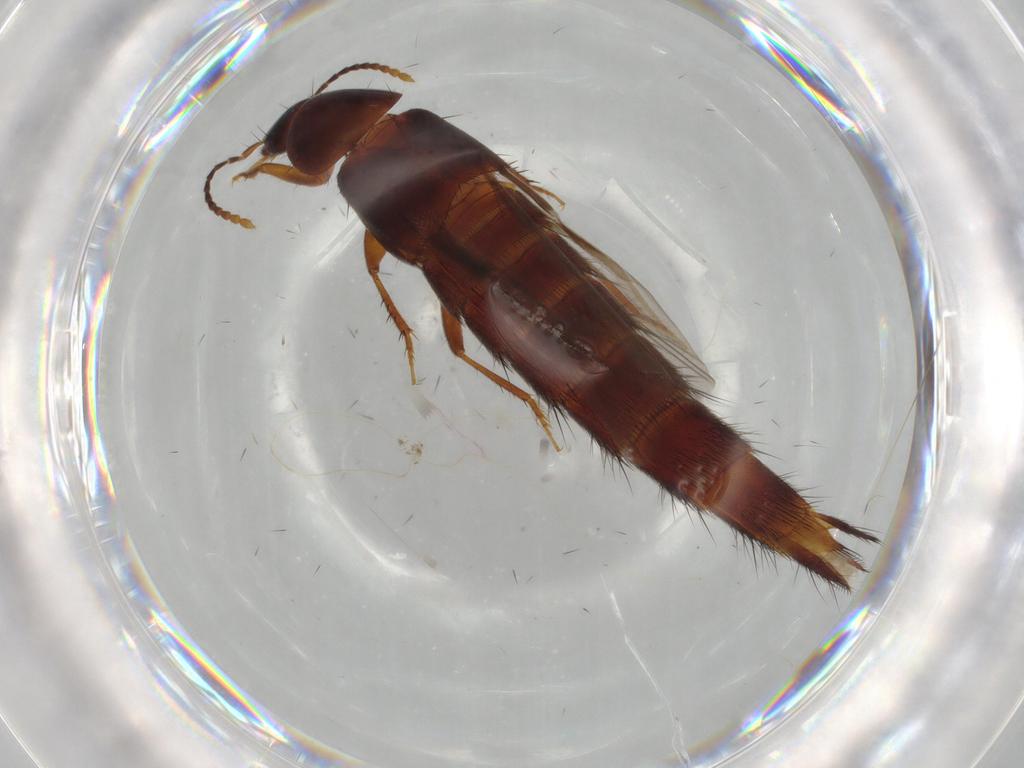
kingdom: Animalia
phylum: Arthropoda
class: Insecta
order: Coleoptera
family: Staphylinidae
